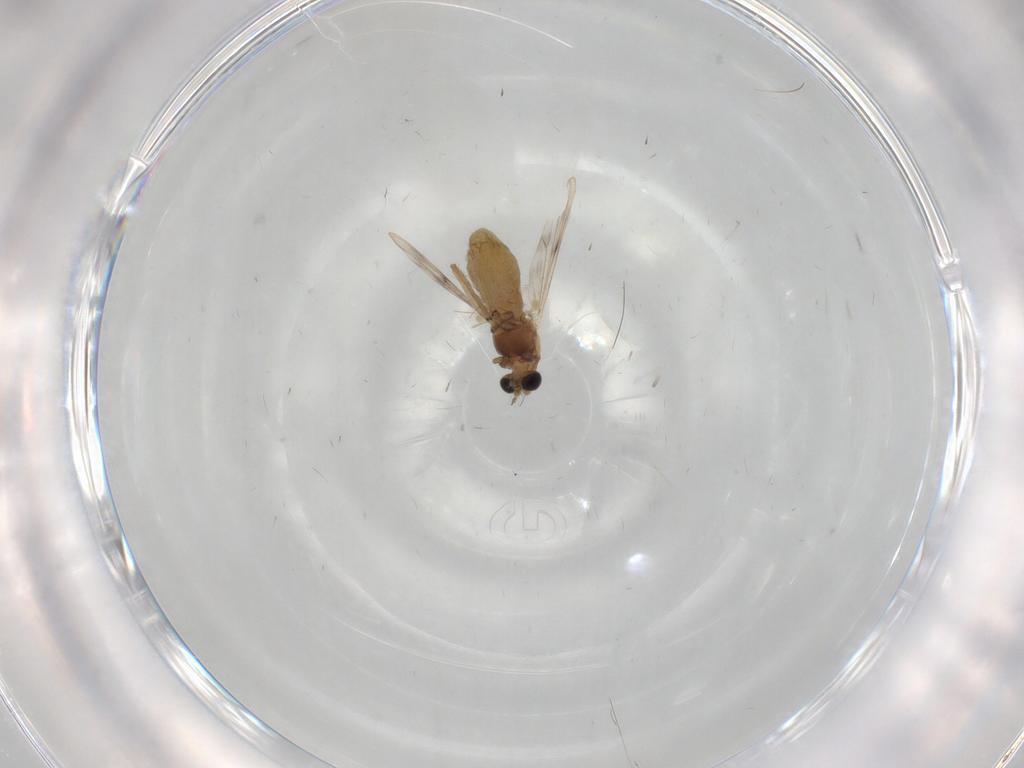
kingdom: Animalia
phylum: Arthropoda
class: Insecta
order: Diptera
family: Chironomidae
